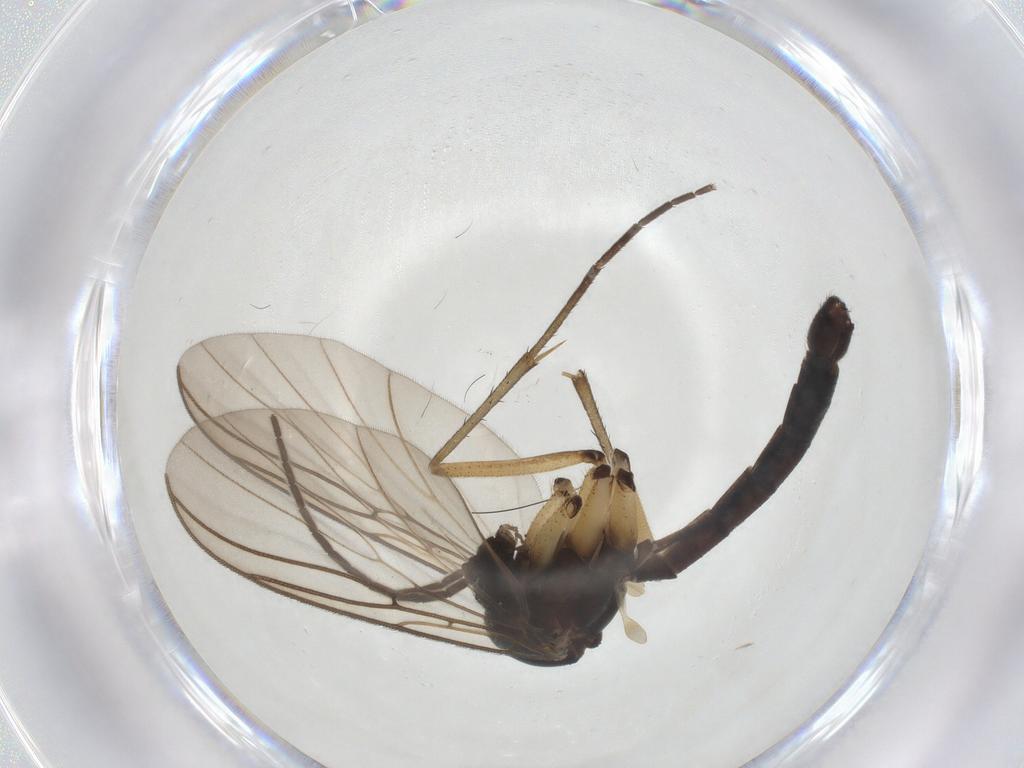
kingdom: Animalia
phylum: Arthropoda
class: Insecta
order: Diptera
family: Mycetophilidae
